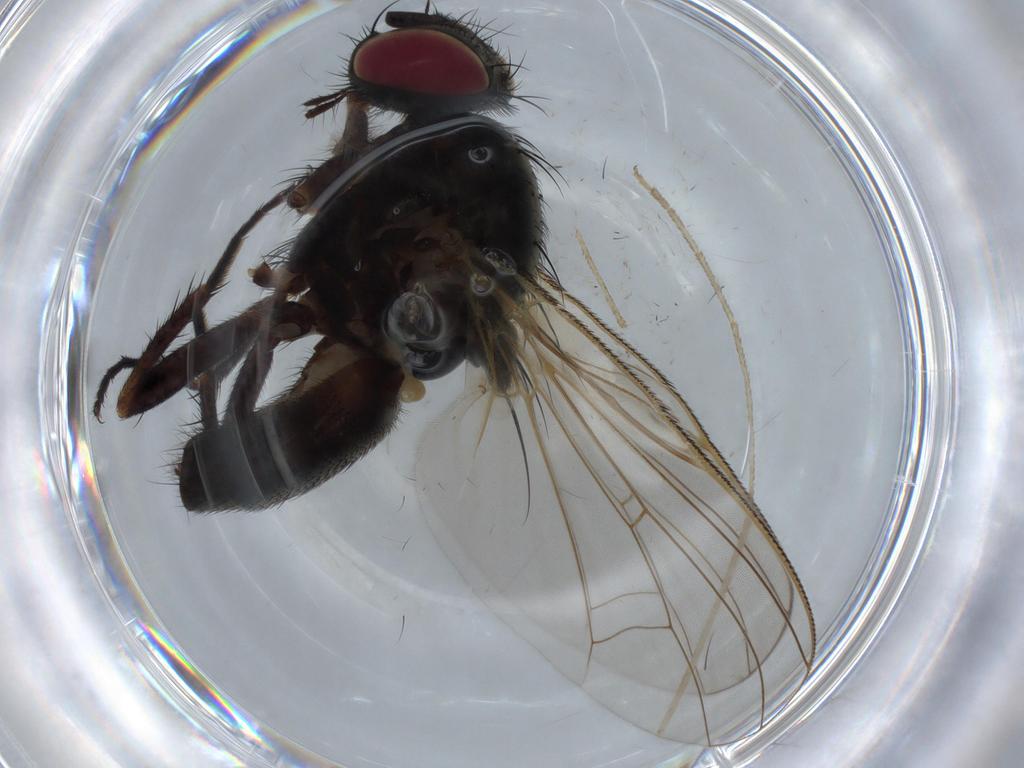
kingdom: Animalia
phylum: Arthropoda
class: Insecta
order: Diptera
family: Fannia
